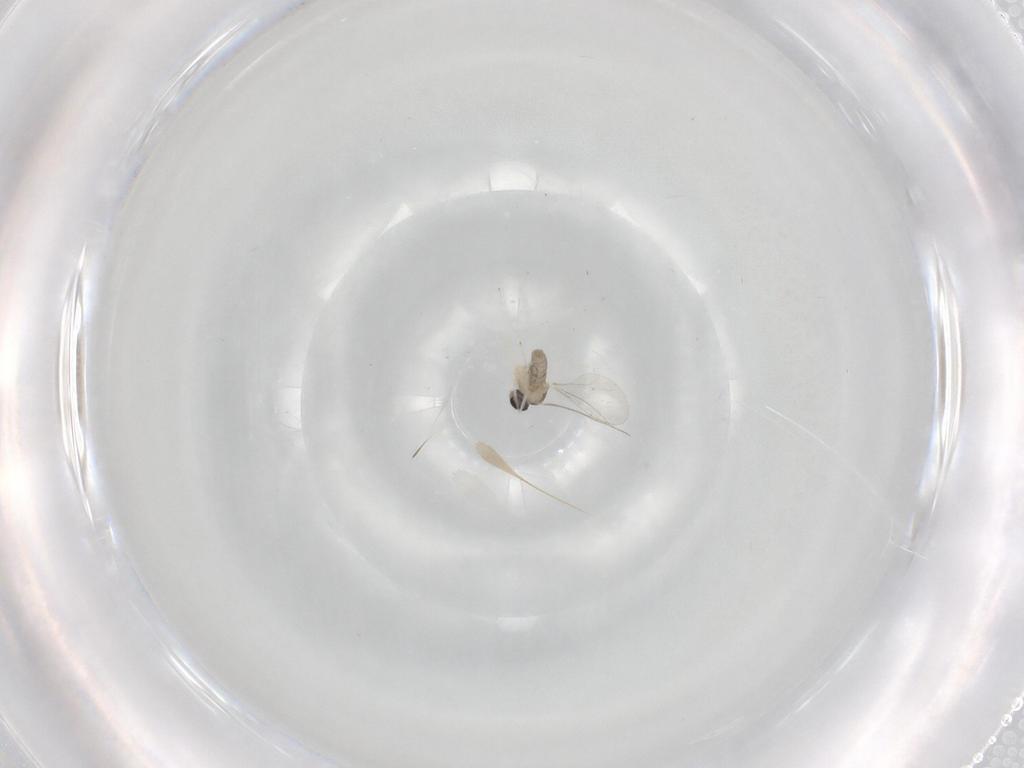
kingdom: Animalia
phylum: Arthropoda
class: Insecta
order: Diptera
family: Cecidomyiidae
